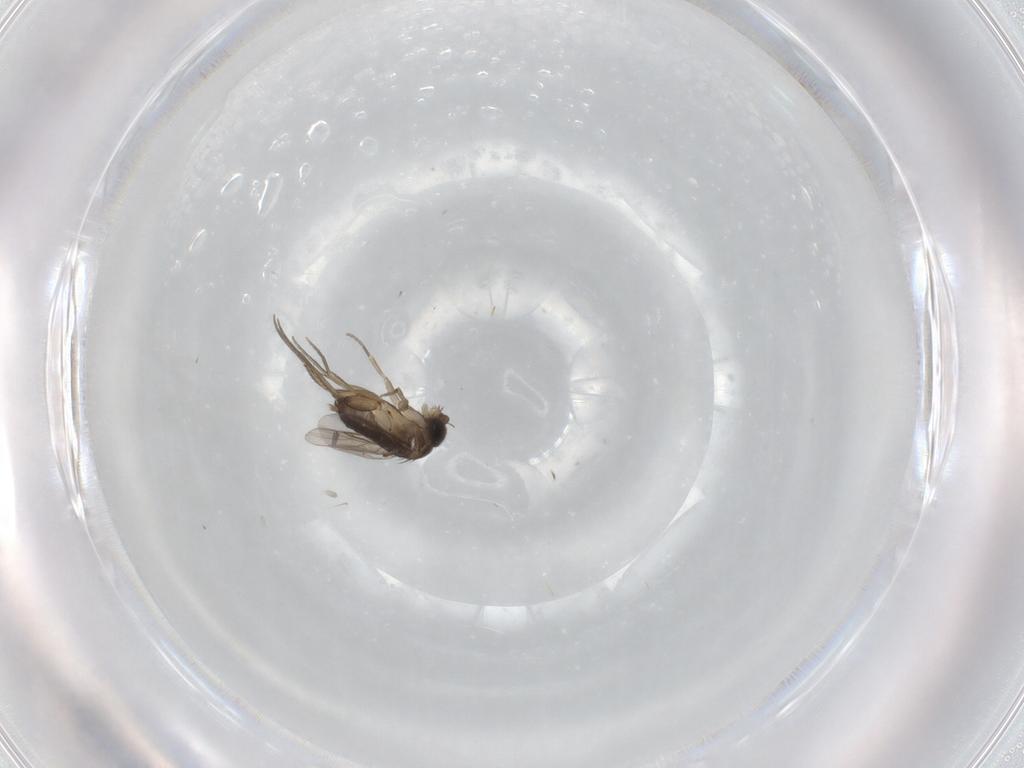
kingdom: Animalia
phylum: Arthropoda
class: Insecta
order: Diptera
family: Phoridae
